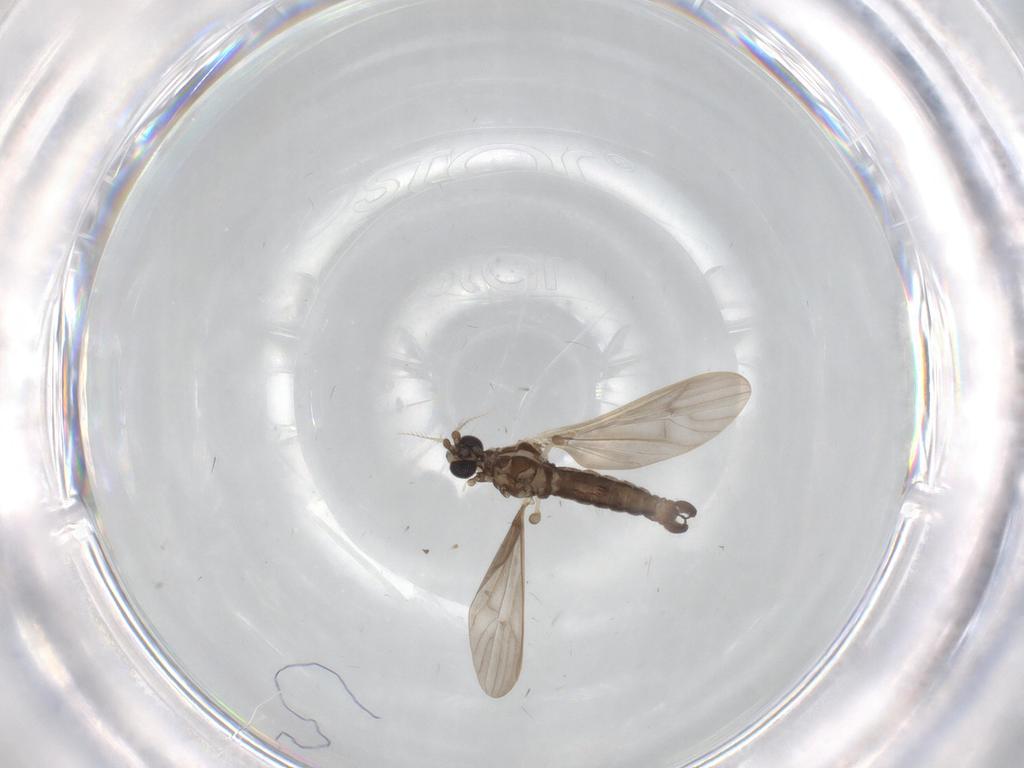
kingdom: Animalia
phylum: Arthropoda
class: Insecta
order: Diptera
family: Limoniidae
